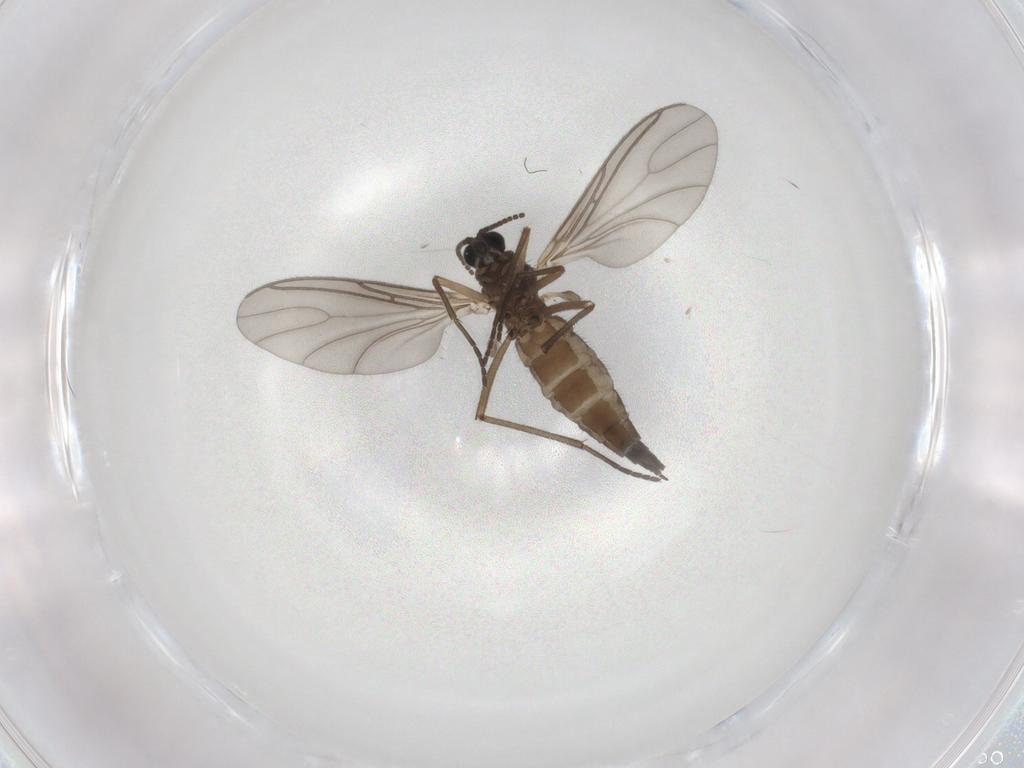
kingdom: Animalia
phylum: Arthropoda
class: Insecta
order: Diptera
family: Sciaridae
